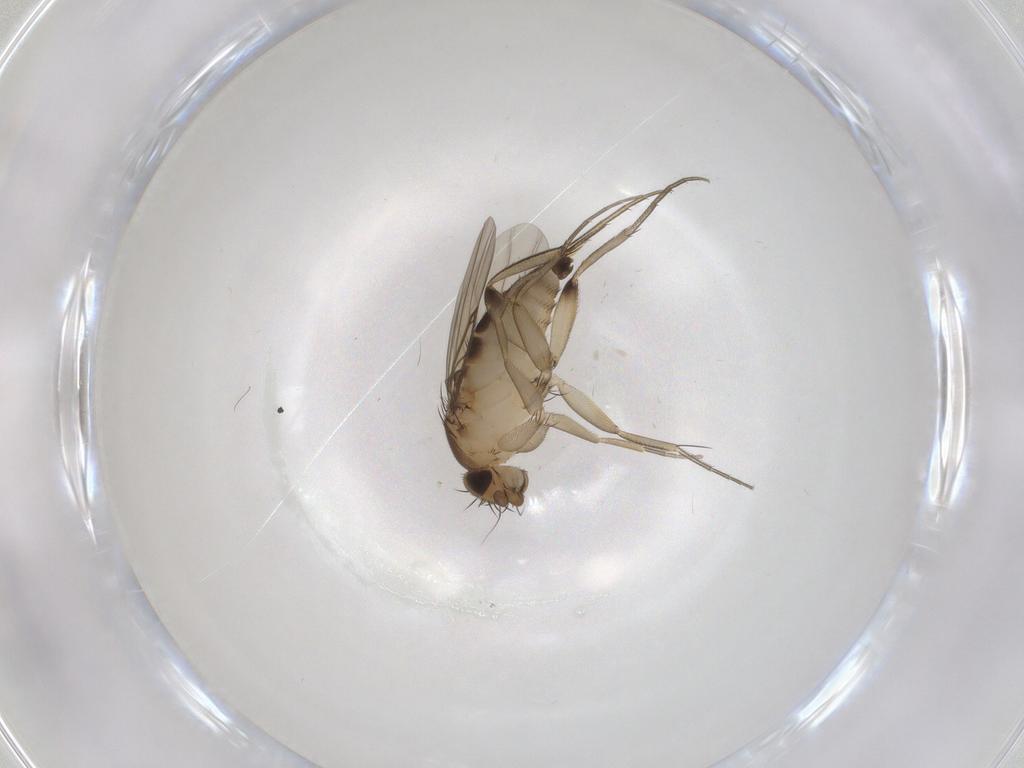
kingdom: Animalia
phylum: Arthropoda
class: Insecta
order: Diptera
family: Phoridae
